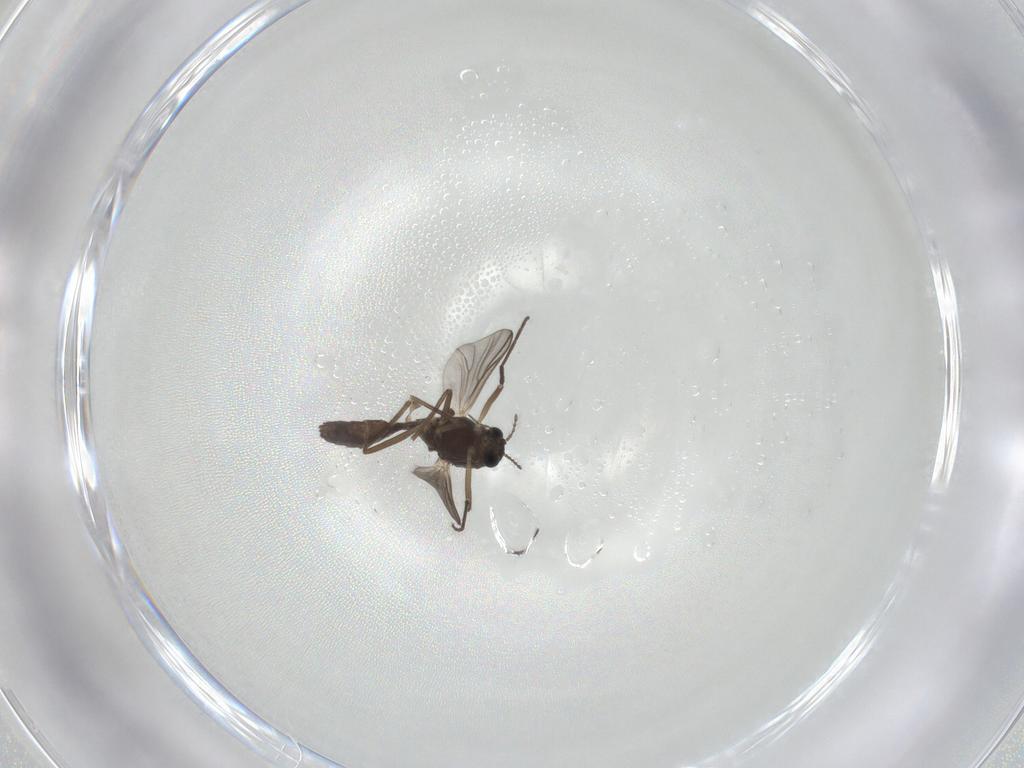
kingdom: Animalia
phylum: Arthropoda
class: Insecta
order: Diptera
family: Chironomidae
